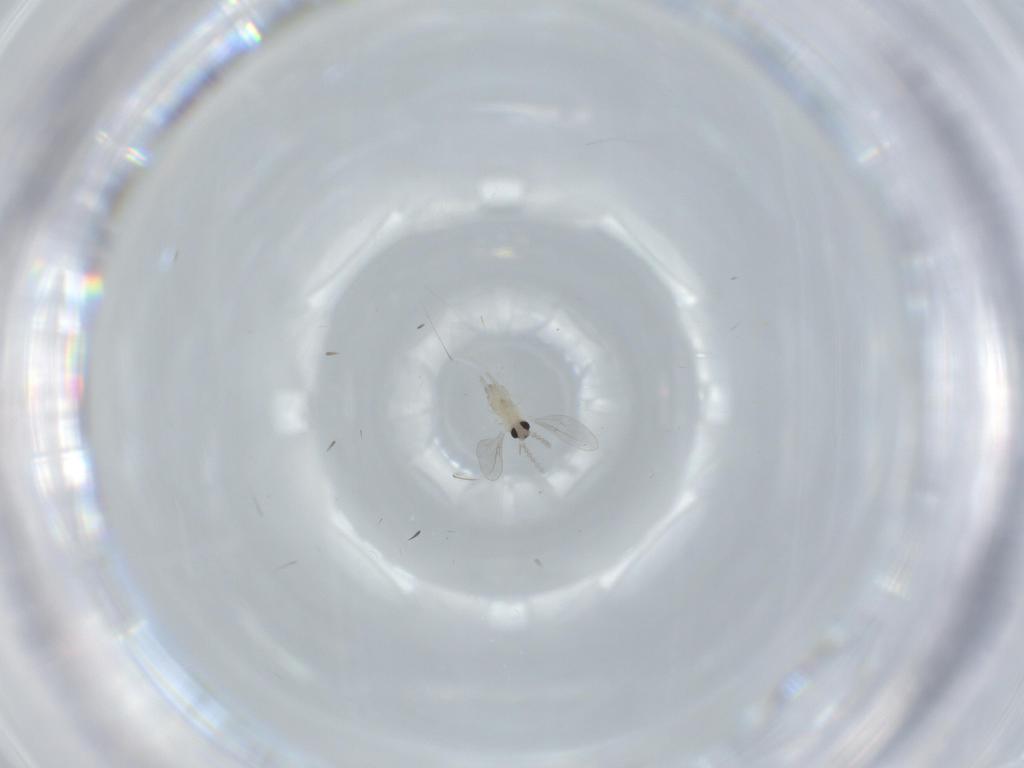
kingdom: Animalia
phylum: Arthropoda
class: Insecta
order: Diptera
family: Cecidomyiidae
